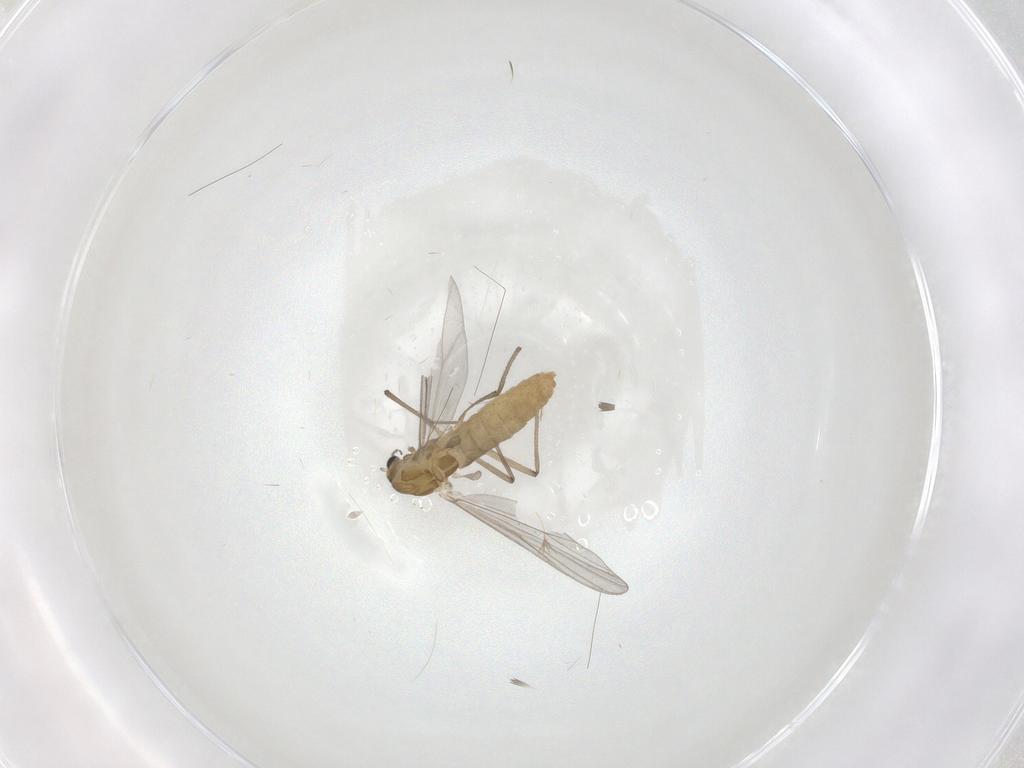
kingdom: Animalia
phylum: Arthropoda
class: Insecta
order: Diptera
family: Chironomidae
